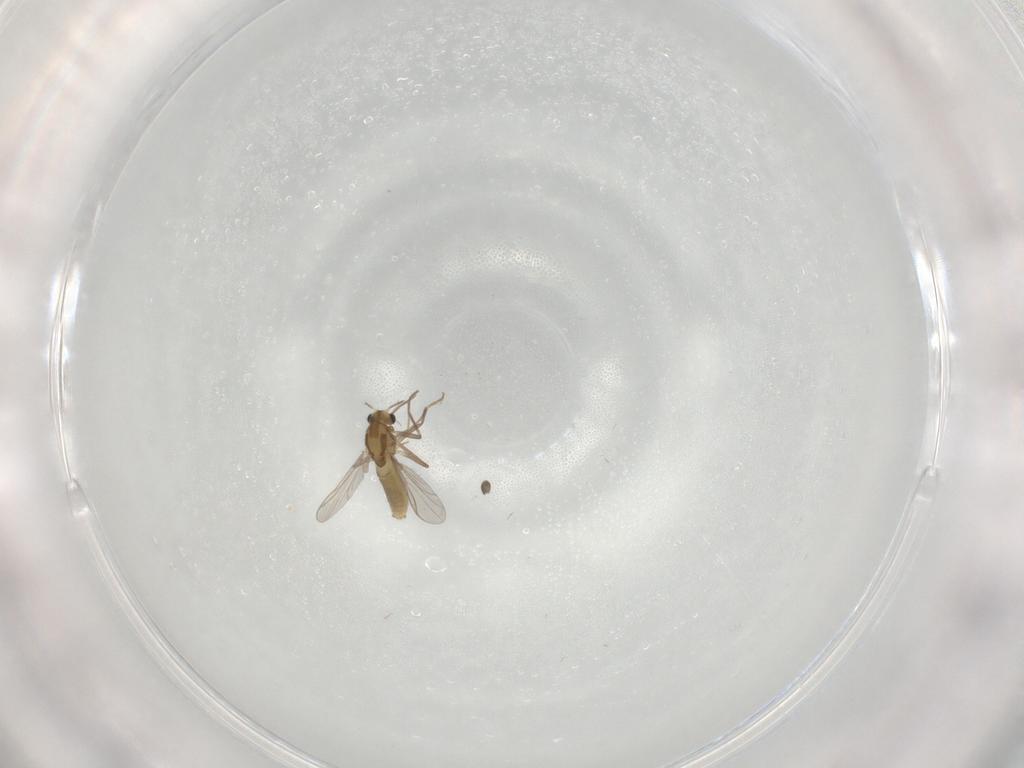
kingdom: Animalia
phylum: Arthropoda
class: Insecta
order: Diptera
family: Chironomidae
